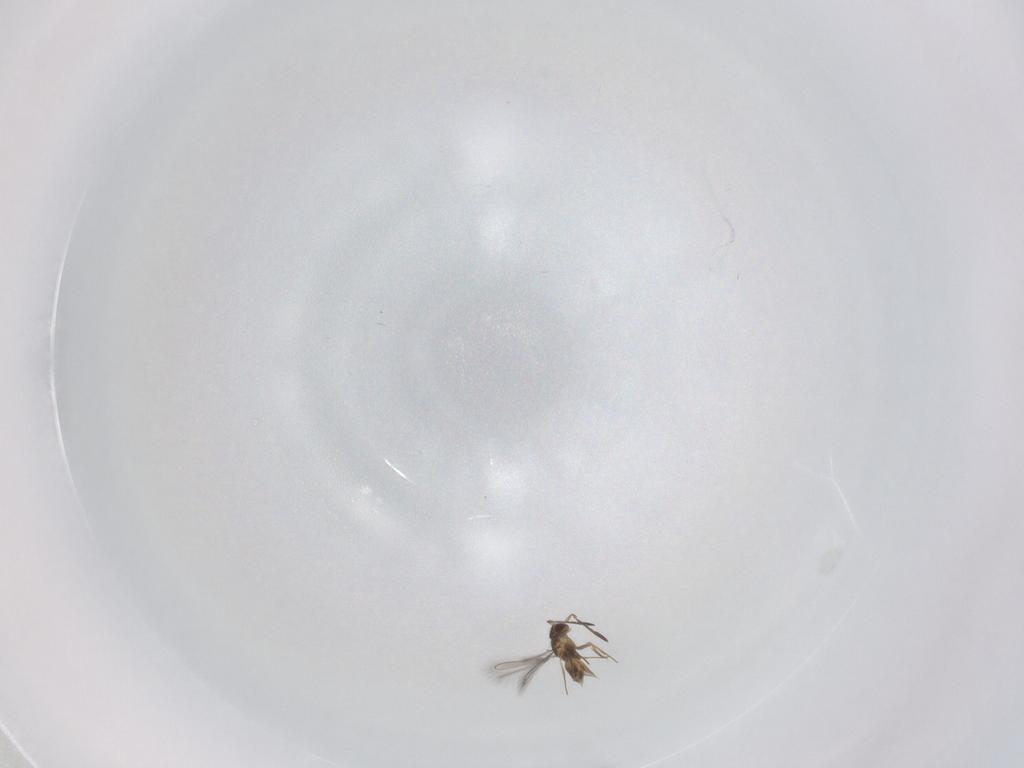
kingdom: Animalia
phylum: Arthropoda
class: Insecta
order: Hymenoptera
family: Mymaridae
